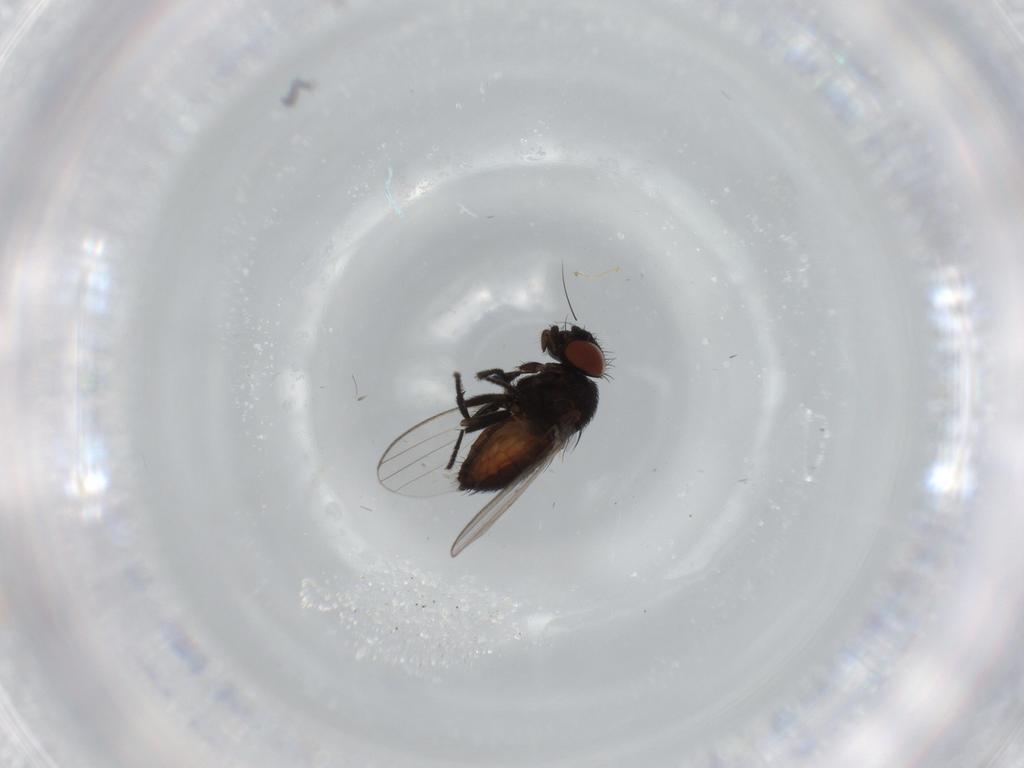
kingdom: Animalia
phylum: Arthropoda
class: Insecta
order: Diptera
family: Milichiidae
